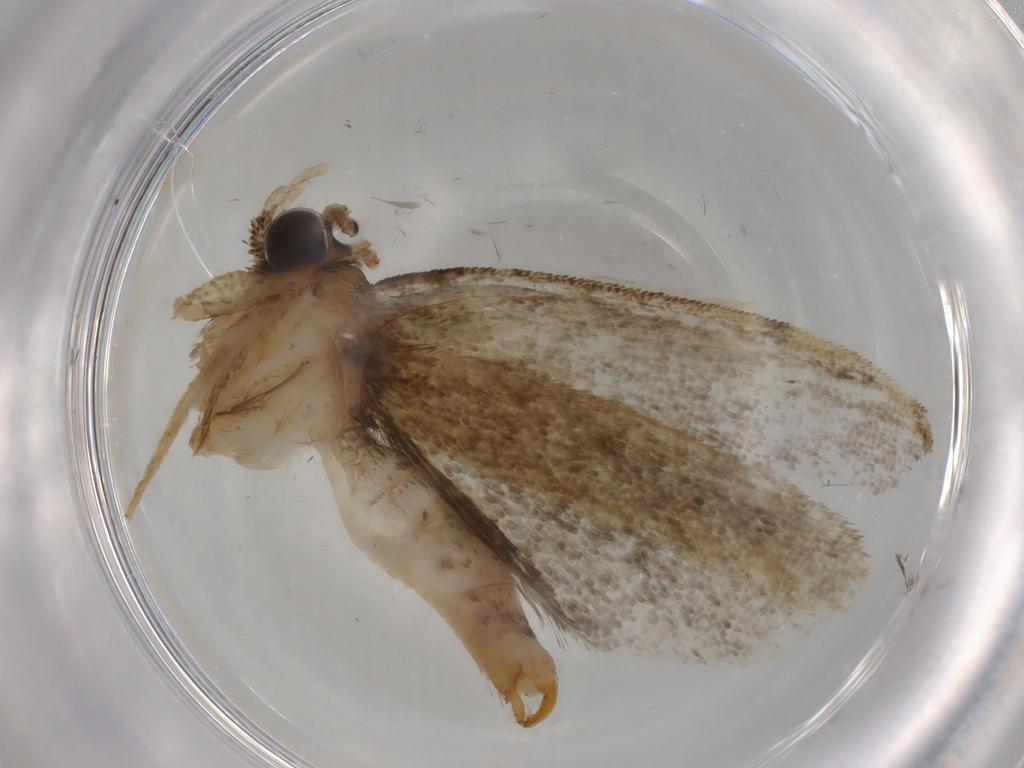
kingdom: Animalia
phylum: Arthropoda
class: Insecta
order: Lepidoptera
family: Tineidae
